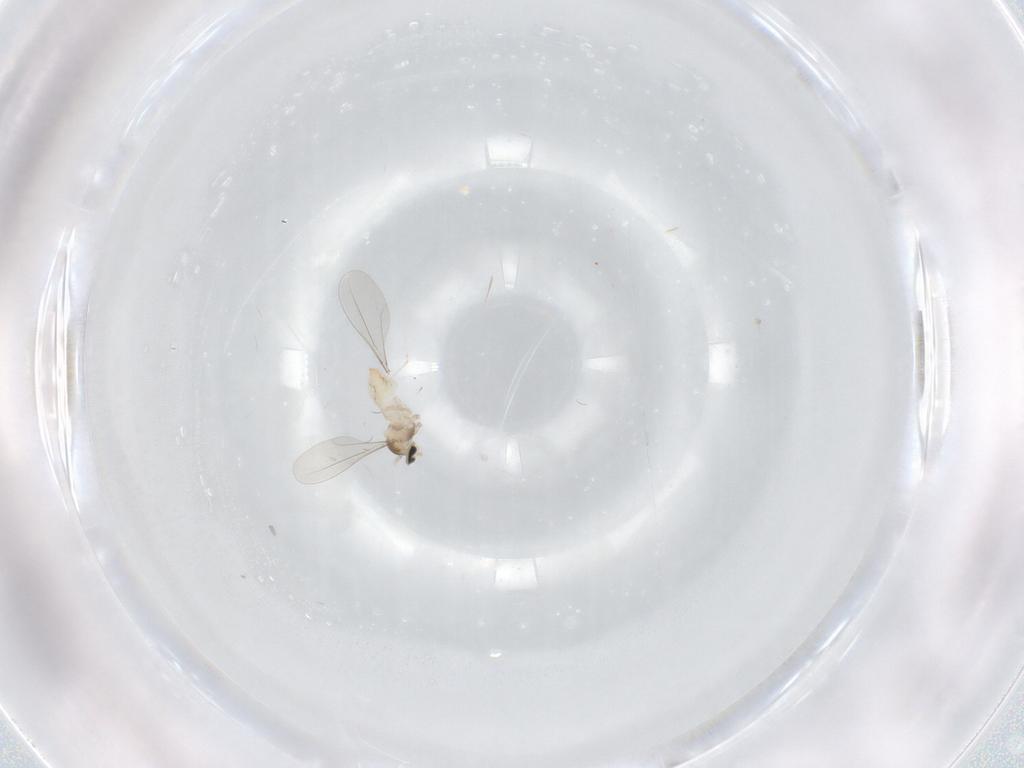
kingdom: Animalia
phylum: Arthropoda
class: Insecta
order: Diptera
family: Cecidomyiidae
